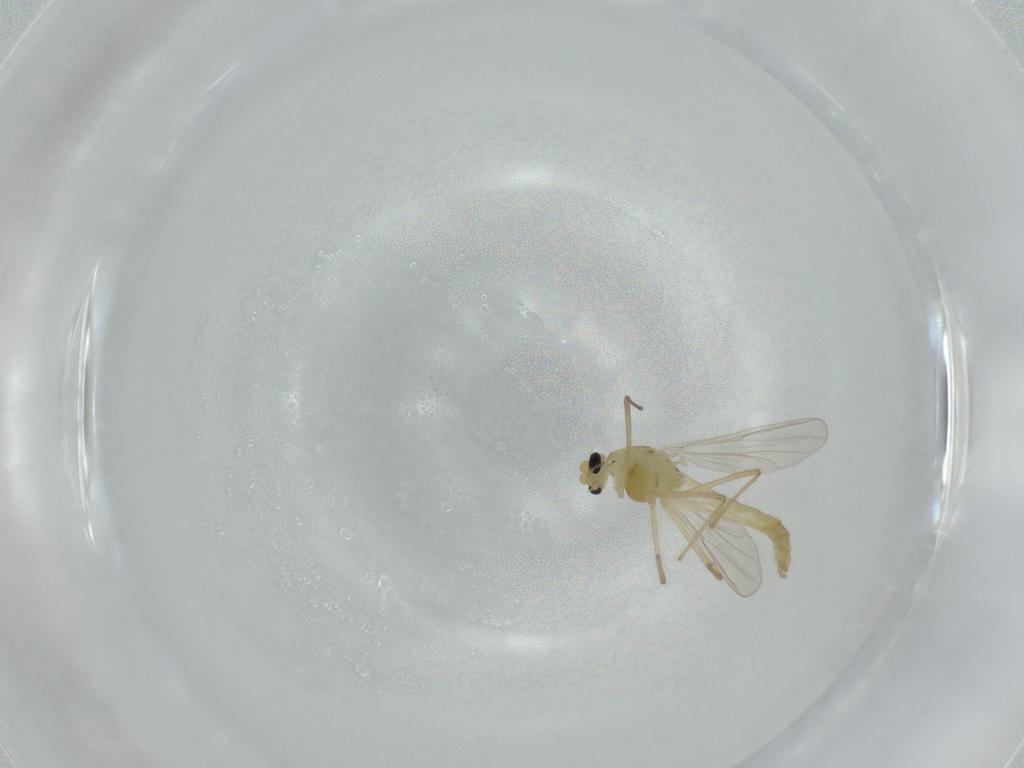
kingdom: Animalia
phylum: Arthropoda
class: Insecta
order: Diptera
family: Chironomidae
